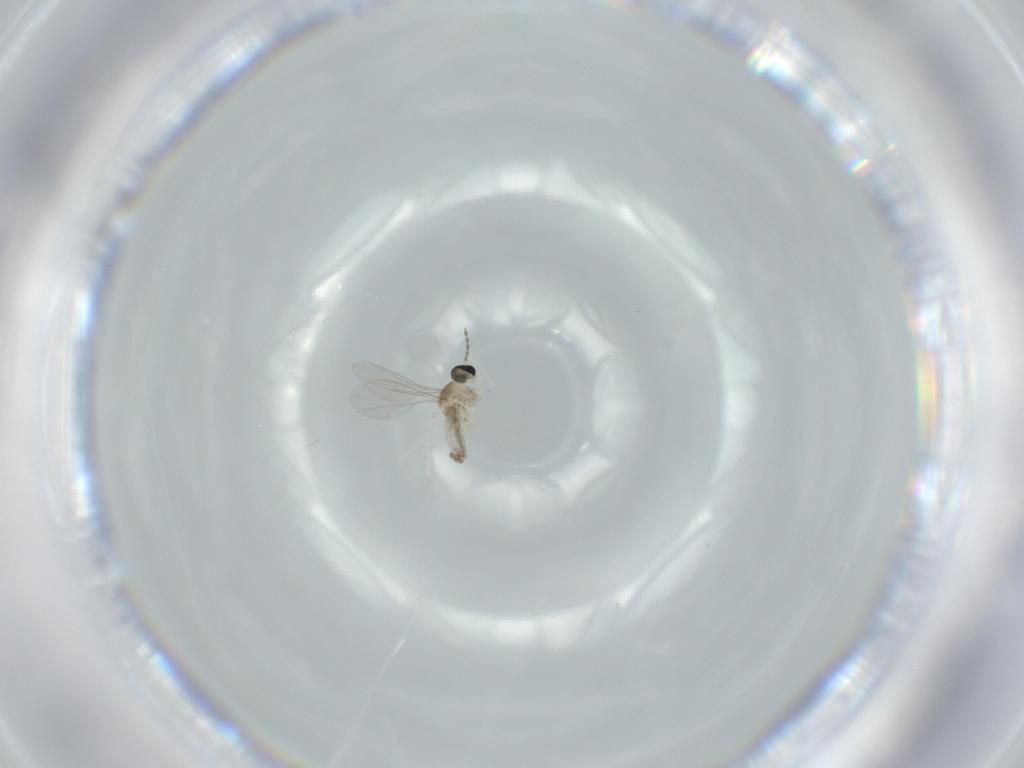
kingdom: Animalia
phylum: Arthropoda
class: Insecta
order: Diptera
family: Cecidomyiidae
